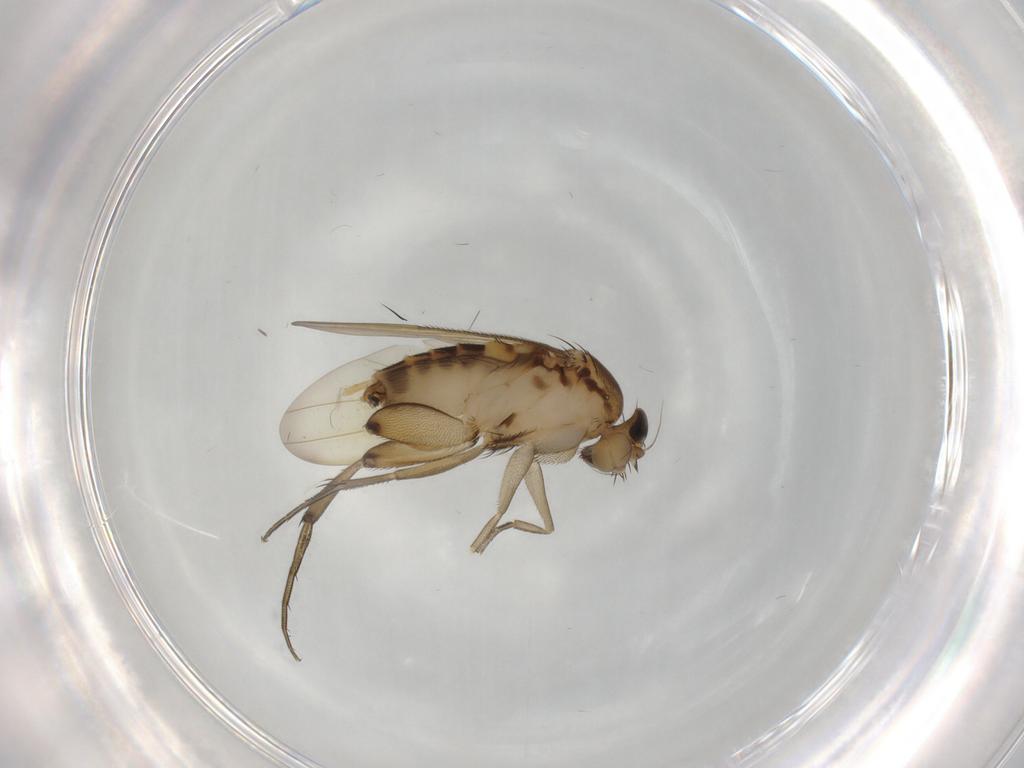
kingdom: Animalia
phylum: Arthropoda
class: Insecta
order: Diptera
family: Phoridae
